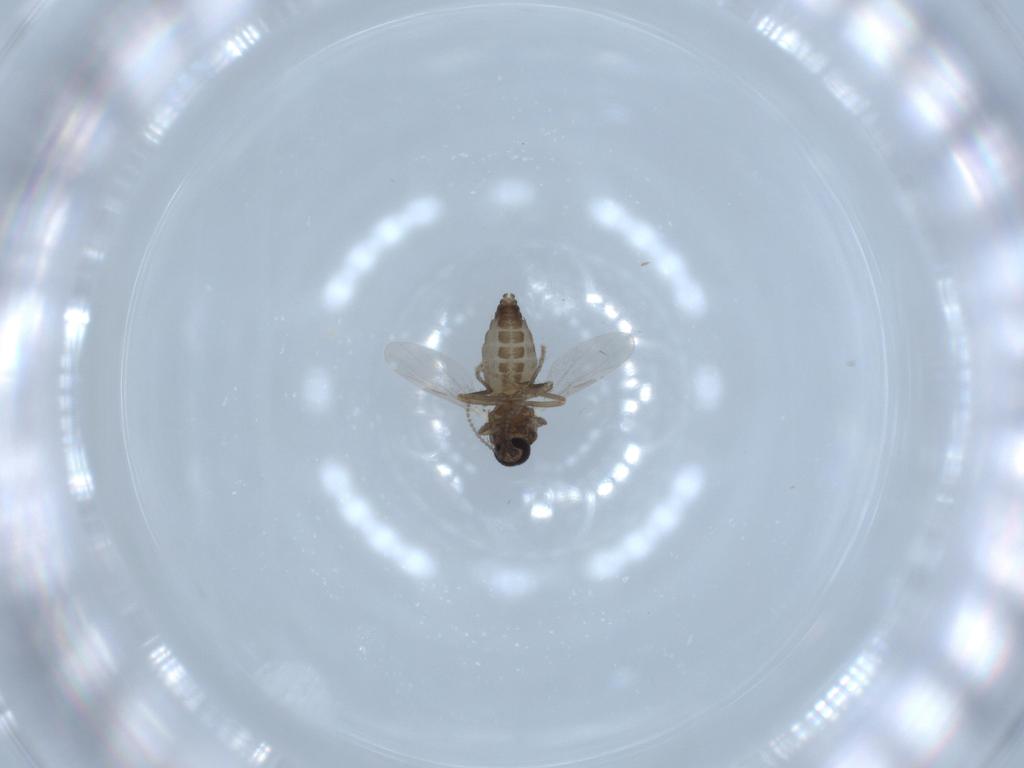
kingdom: Animalia
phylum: Arthropoda
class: Insecta
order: Diptera
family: Ceratopogonidae
